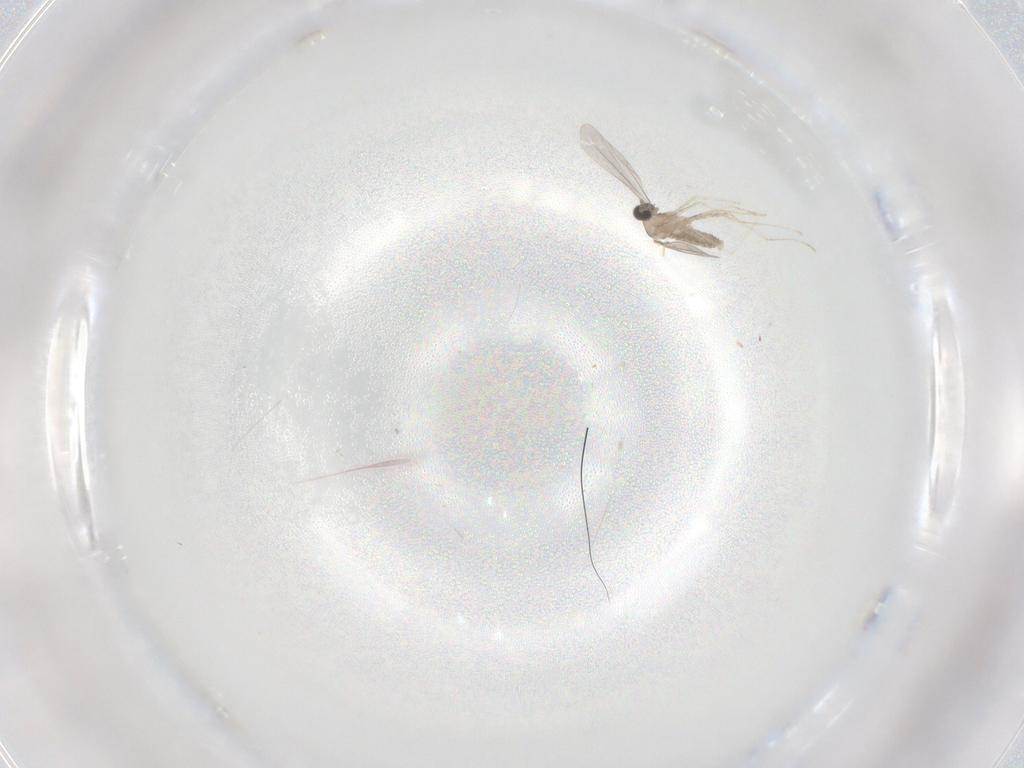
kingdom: Animalia
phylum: Arthropoda
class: Insecta
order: Diptera
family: Cecidomyiidae
